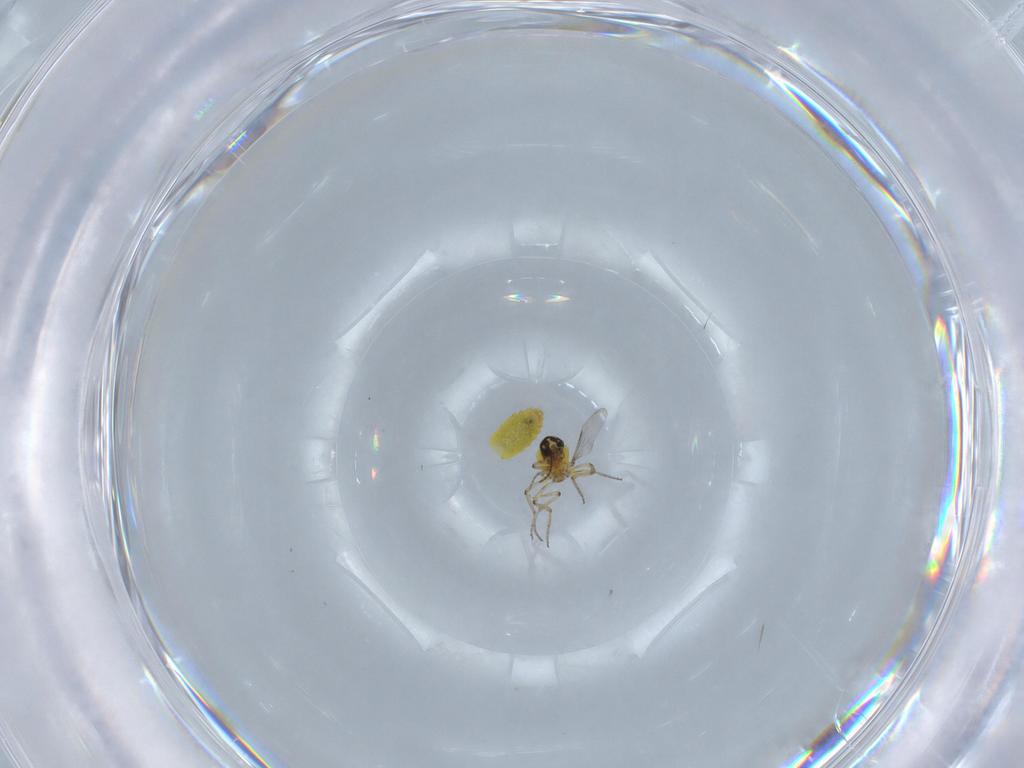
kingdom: Animalia
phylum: Arthropoda
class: Insecta
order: Diptera
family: Ceratopogonidae
